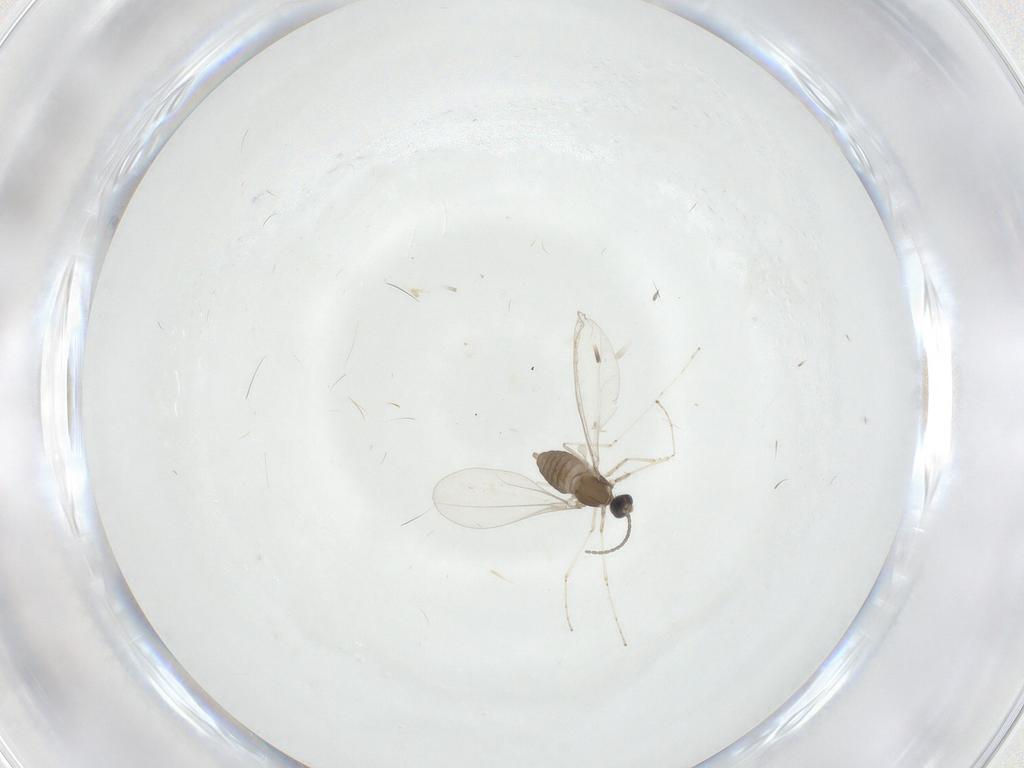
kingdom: Animalia
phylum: Arthropoda
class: Insecta
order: Diptera
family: Cecidomyiidae
